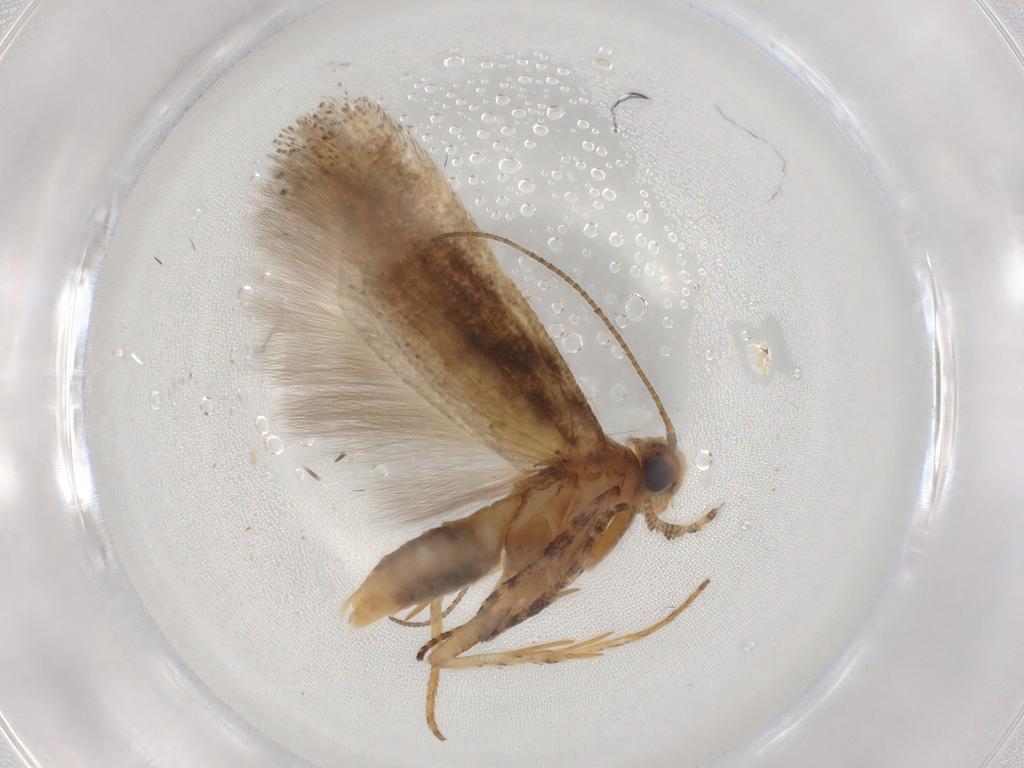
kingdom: Animalia
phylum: Arthropoda
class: Insecta
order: Lepidoptera
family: Gelechiidae
